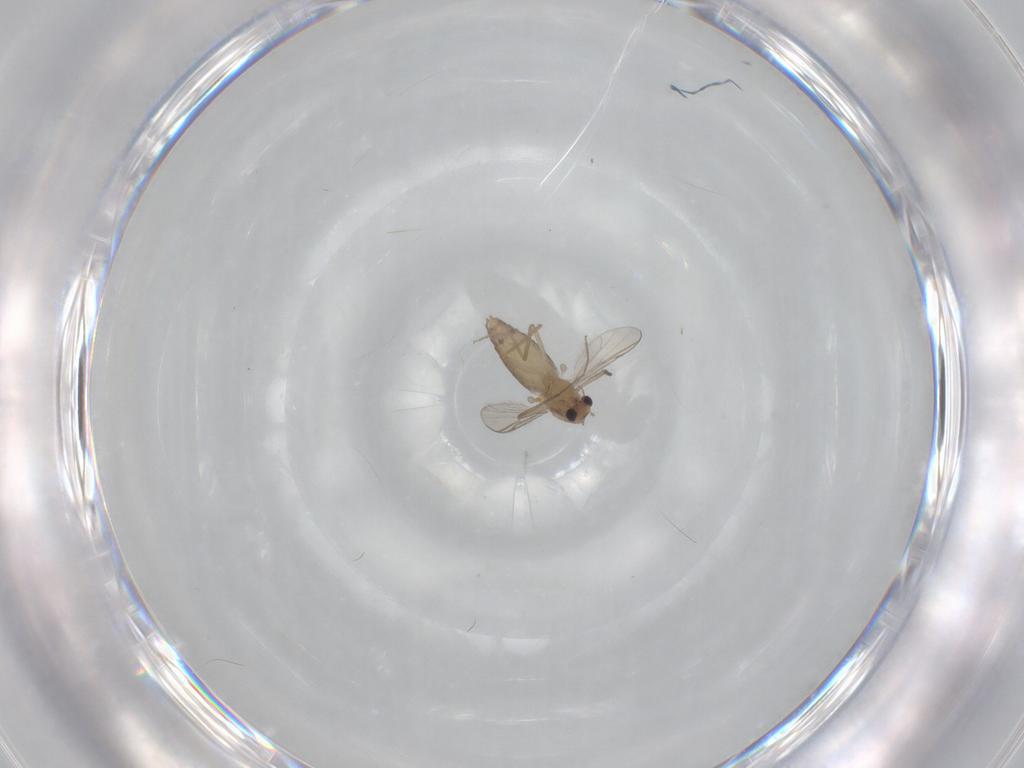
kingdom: Animalia
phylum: Arthropoda
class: Insecta
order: Diptera
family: Chironomidae
